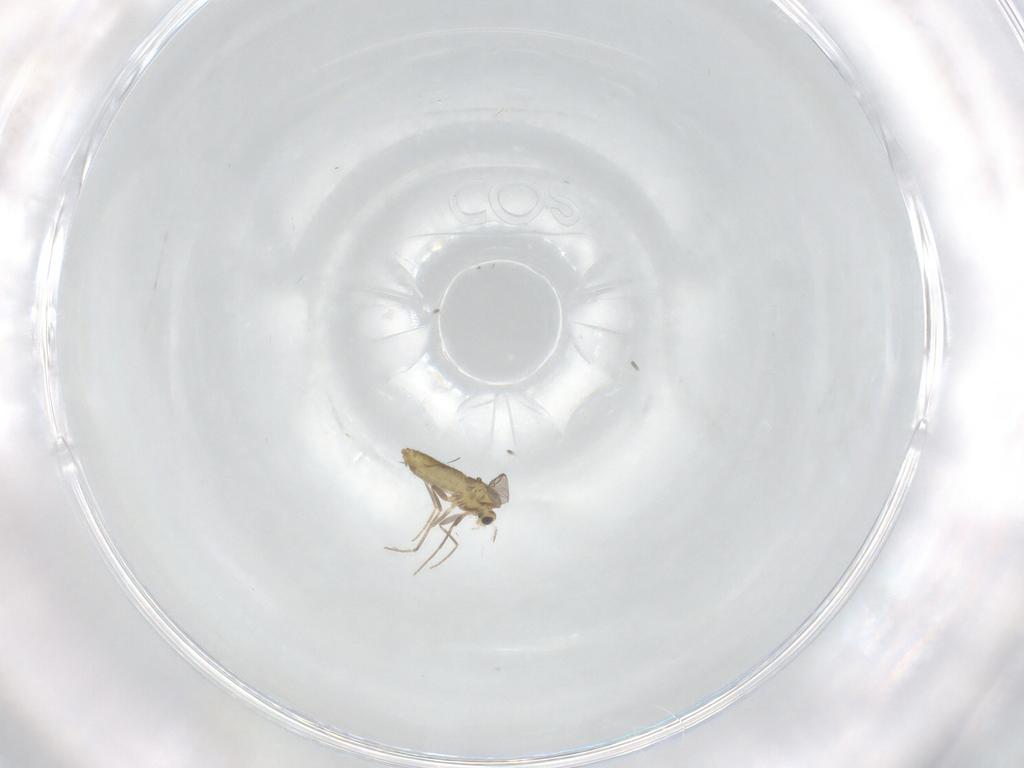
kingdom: Animalia
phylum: Arthropoda
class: Insecta
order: Diptera
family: Chironomidae
